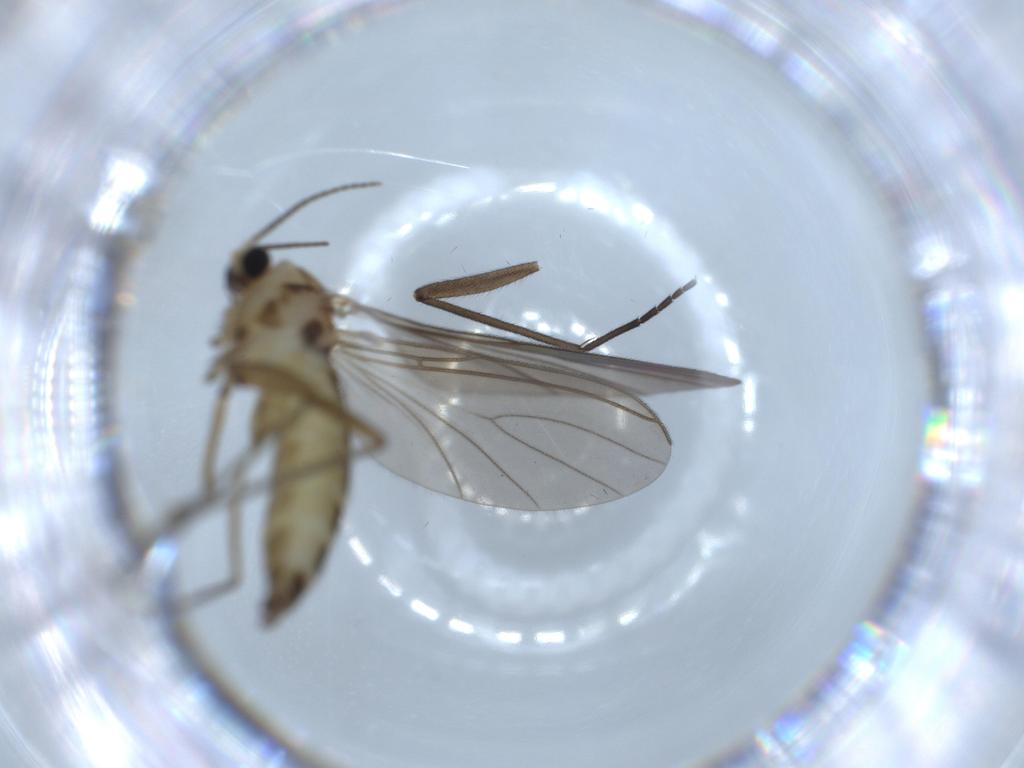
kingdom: Animalia
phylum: Arthropoda
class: Insecta
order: Diptera
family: Sciaridae
